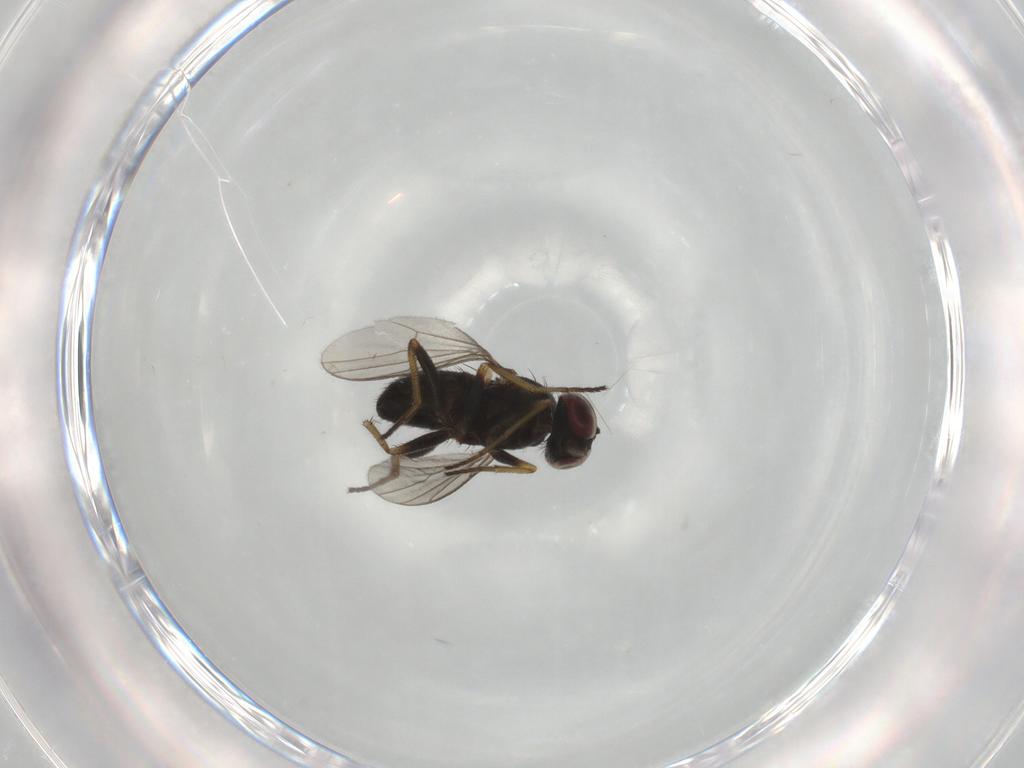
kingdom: Animalia
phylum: Arthropoda
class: Insecta
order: Diptera
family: Dolichopodidae
